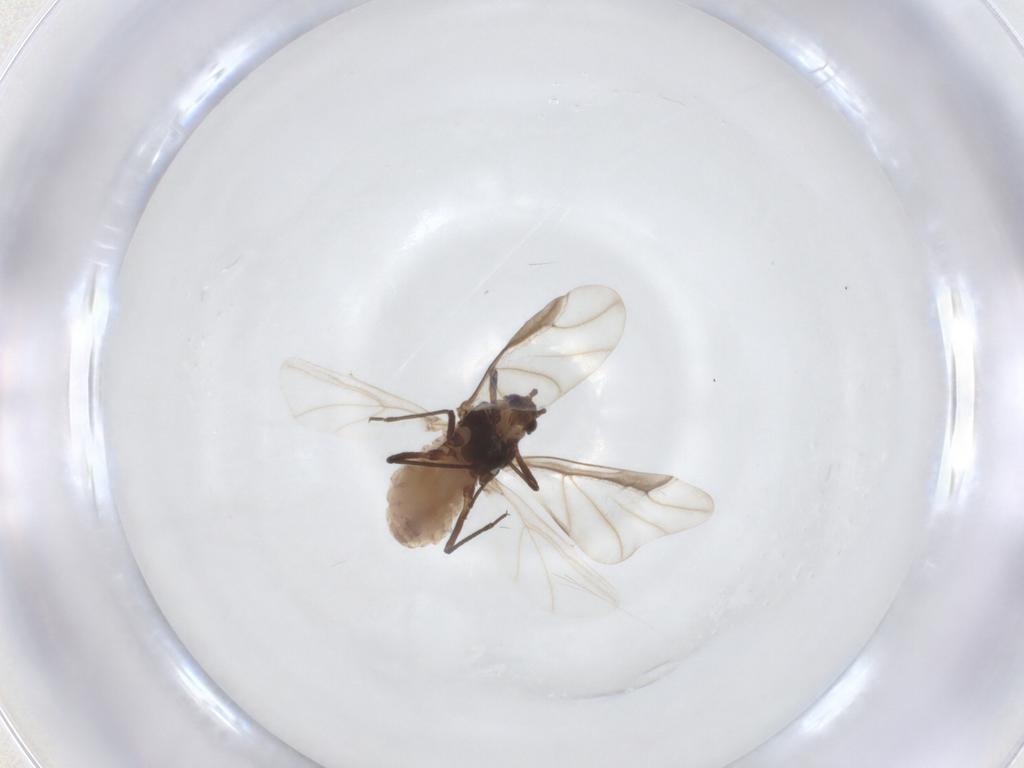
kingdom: Animalia
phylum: Arthropoda
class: Insecta
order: Hemiptera
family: Aphididae
